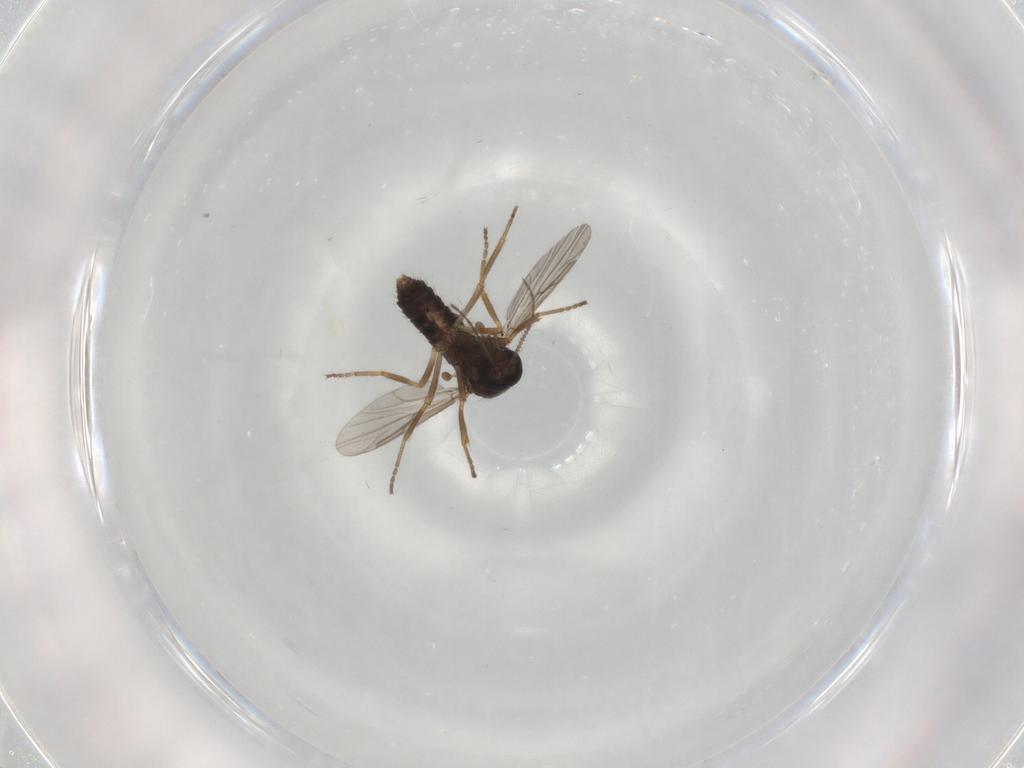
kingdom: Animalia
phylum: Arthropoda
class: Insecta
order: Diptera
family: Ceratopogonidae
